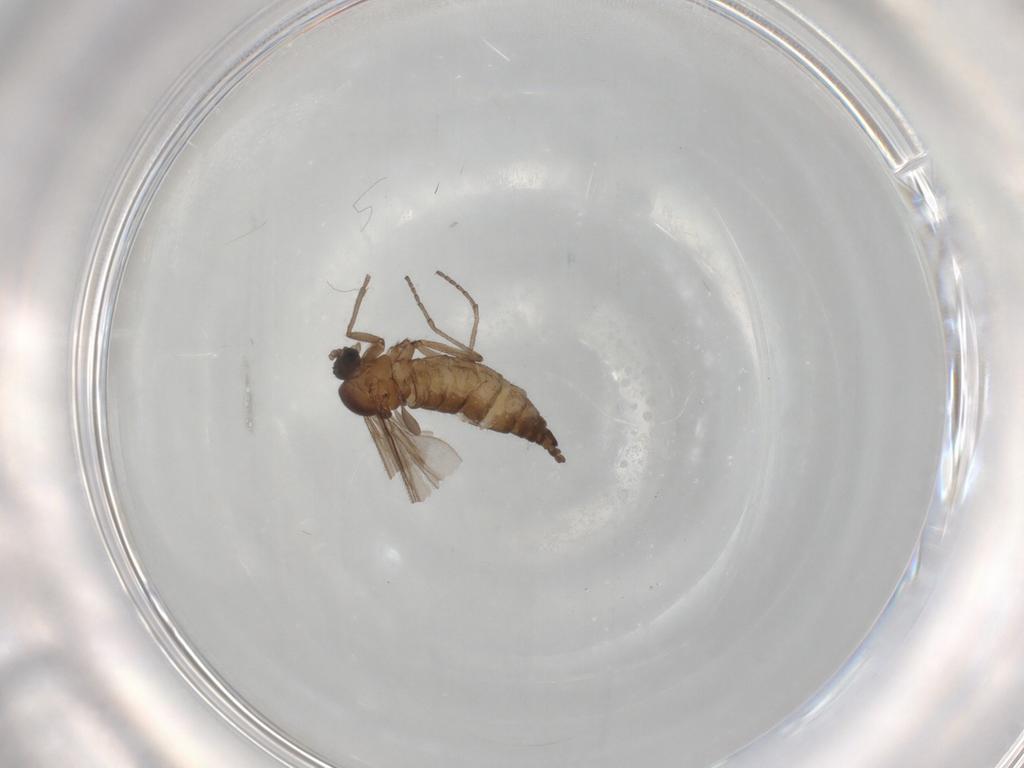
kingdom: Animalia
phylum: Arthropoda
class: Insecta
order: Diptera
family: Sciaridae
